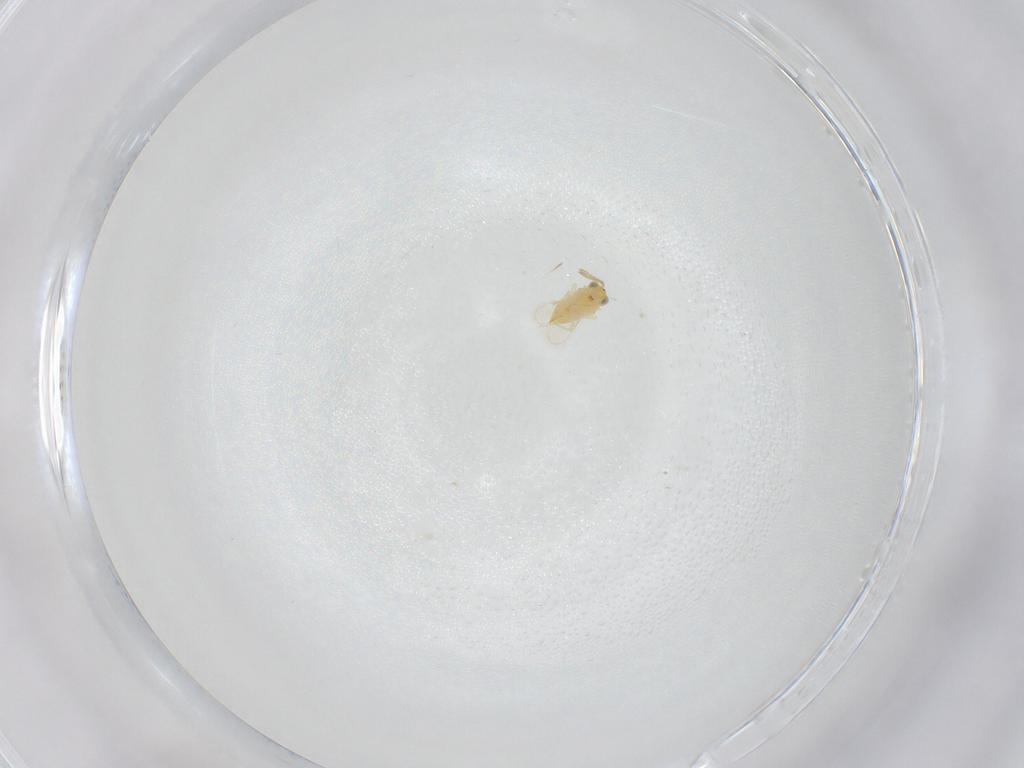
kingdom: Animalia
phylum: Arthropoda
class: Insecta
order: Hymenoptera
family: Aphelinidae
